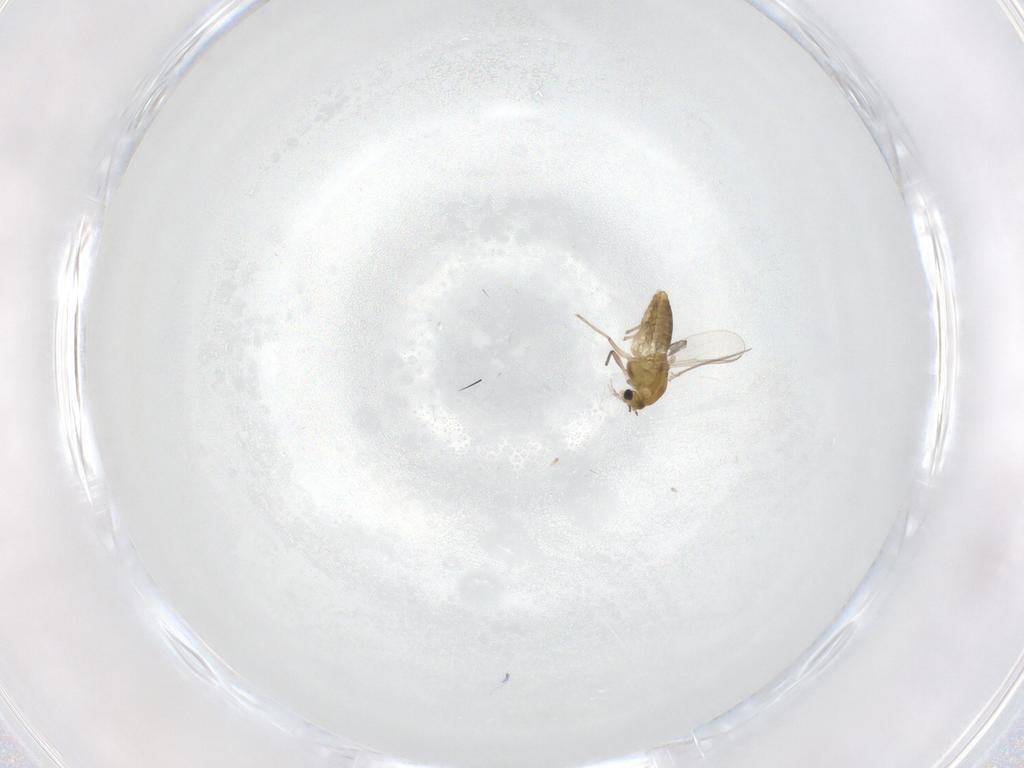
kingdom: Animalia
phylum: Arthropoda
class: Insecta
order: Diptera
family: Chironomidae
